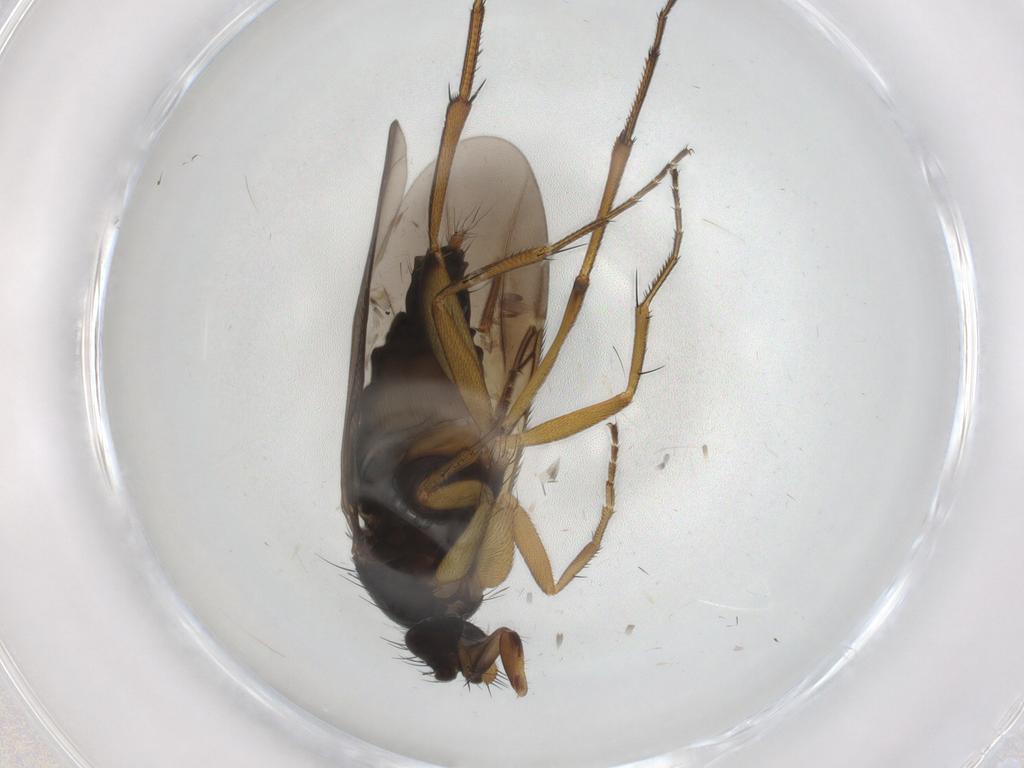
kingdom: Animalia
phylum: Arthropoda
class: Insecta
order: Diptera
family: Phoridae
